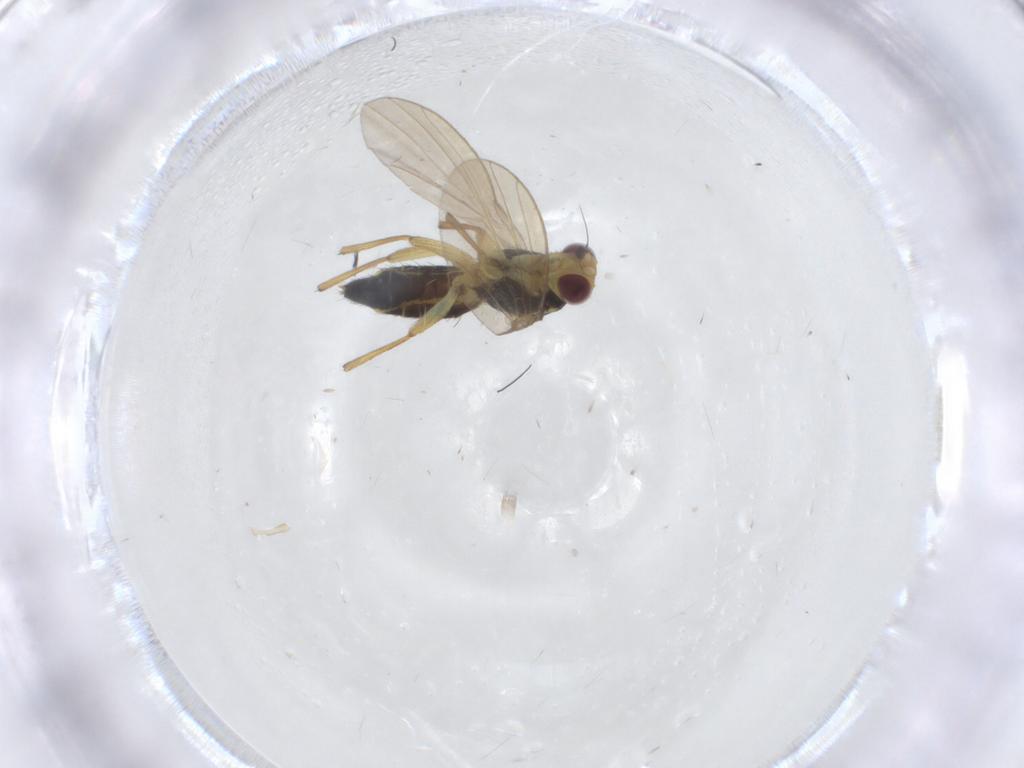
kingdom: Animalia
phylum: Arthropoda
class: Insecta
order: Diptera
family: Agromyzidae
